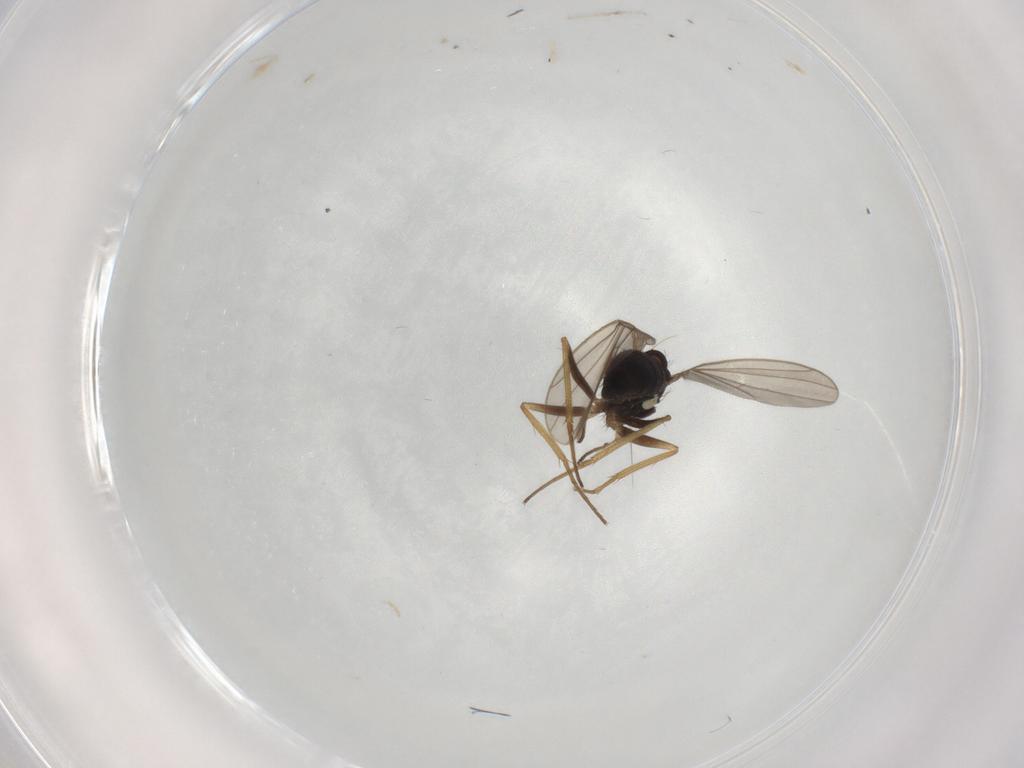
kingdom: Animalia
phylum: Arthropoda
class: Insecta
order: Diptera
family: Dolichopodidae
